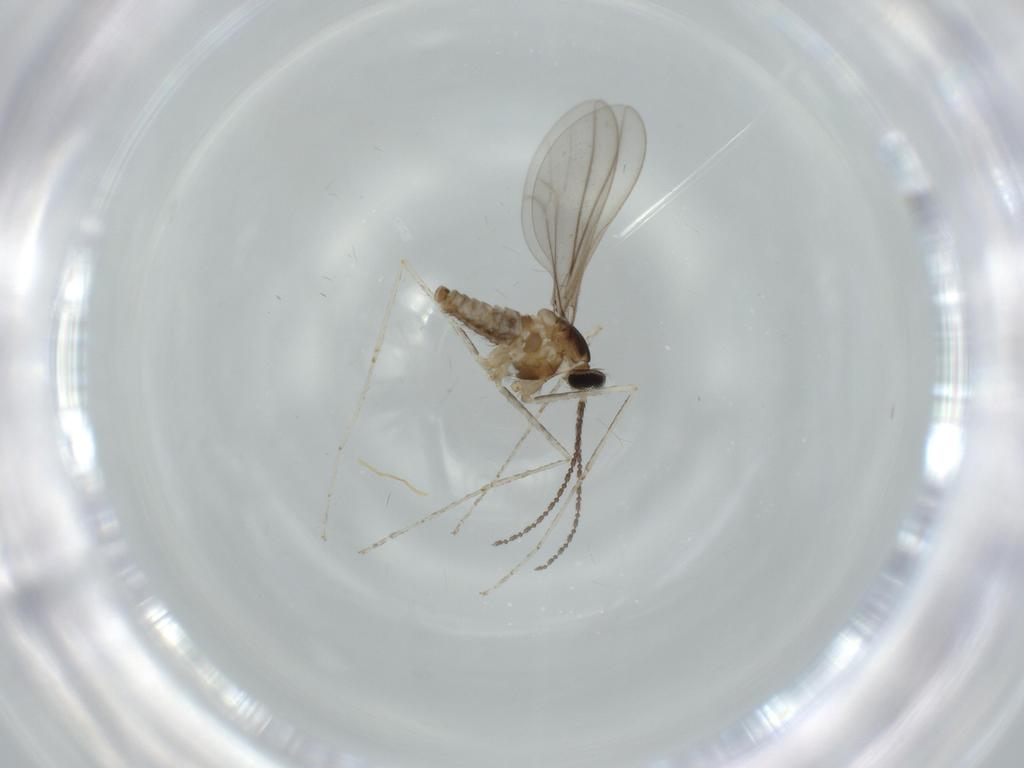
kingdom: Animalia
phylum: Arthropoda
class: Insecta
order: Diptera
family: Cecidomyiidae
